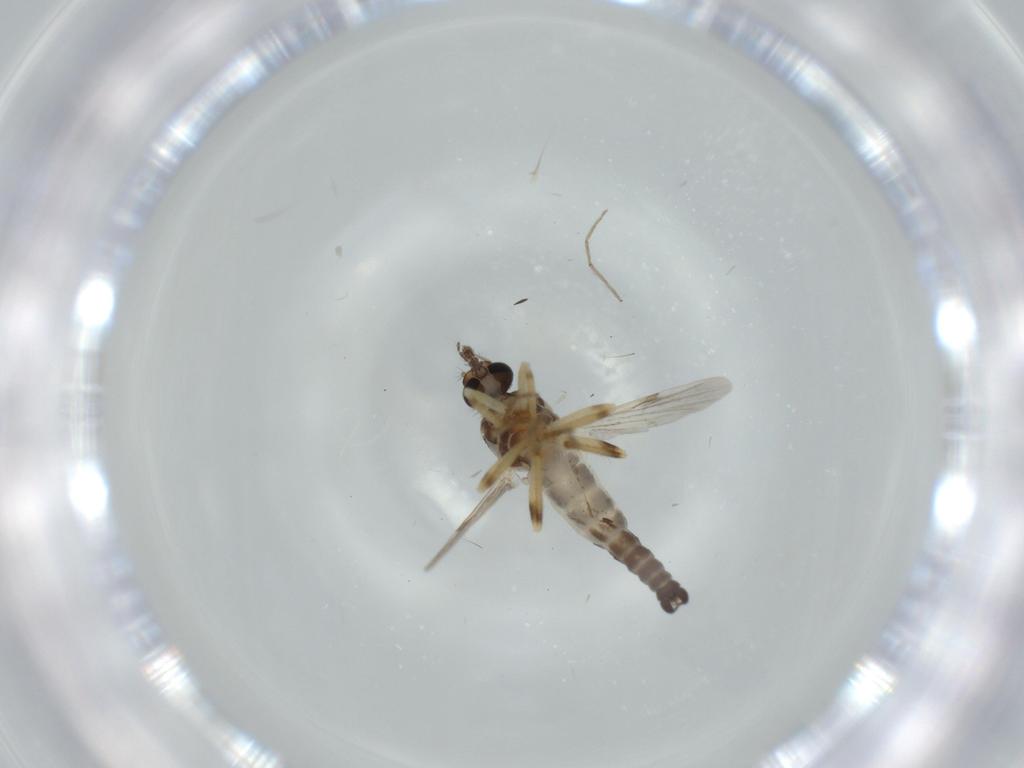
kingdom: Animalia
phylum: Arthropoda
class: Insecta
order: Diptera
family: Ceratopogonidae
